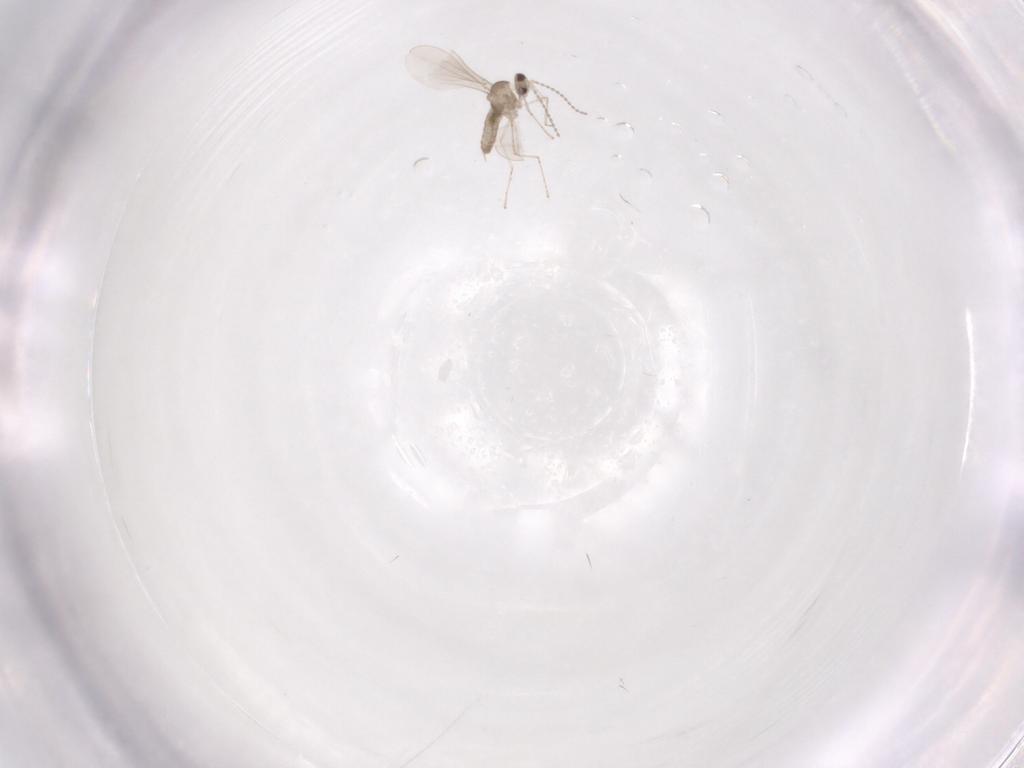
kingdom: Animalia
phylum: Arthropoda
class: Insecta
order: Diptera
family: Cecidomyiidae
